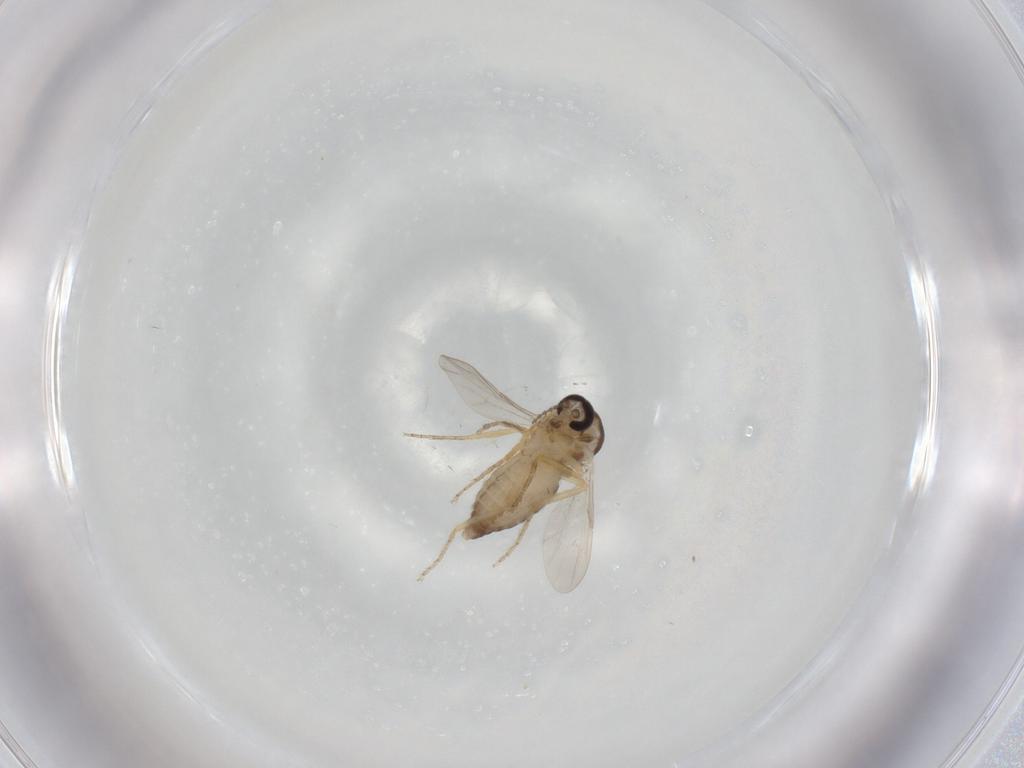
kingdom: Animalia
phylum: Arthropoda
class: Insecta
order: Diptera
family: Ceratopogonidae
